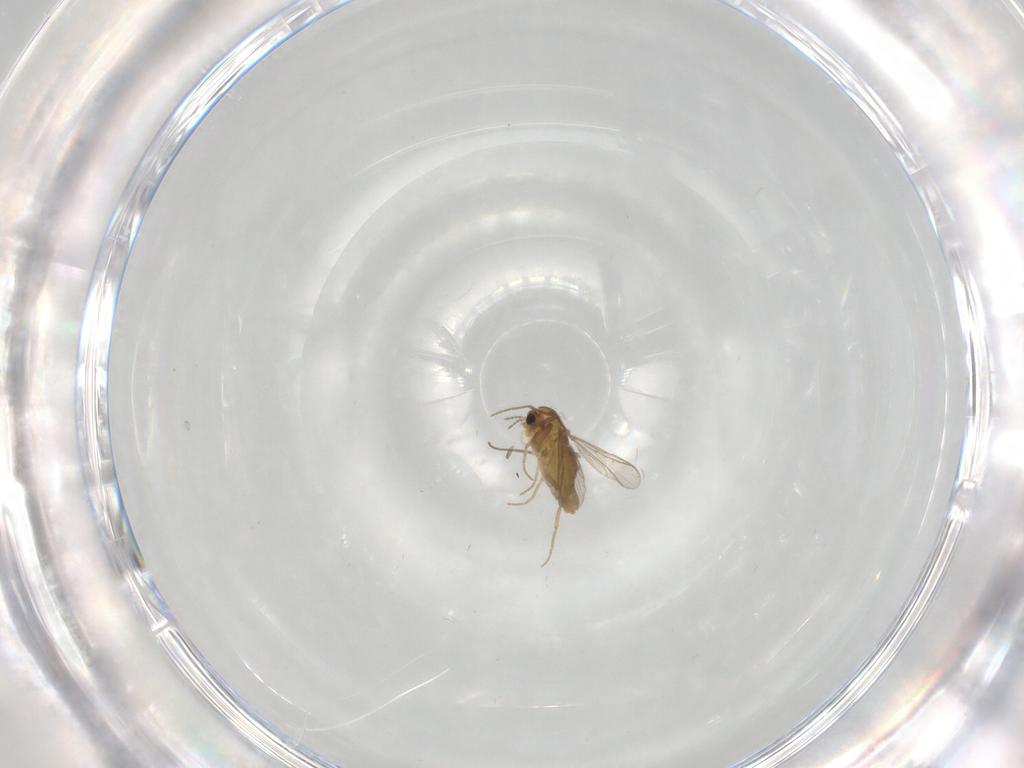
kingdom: Animalia
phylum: Arthropoda
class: Insecta
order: Diptera
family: Chironomidae
